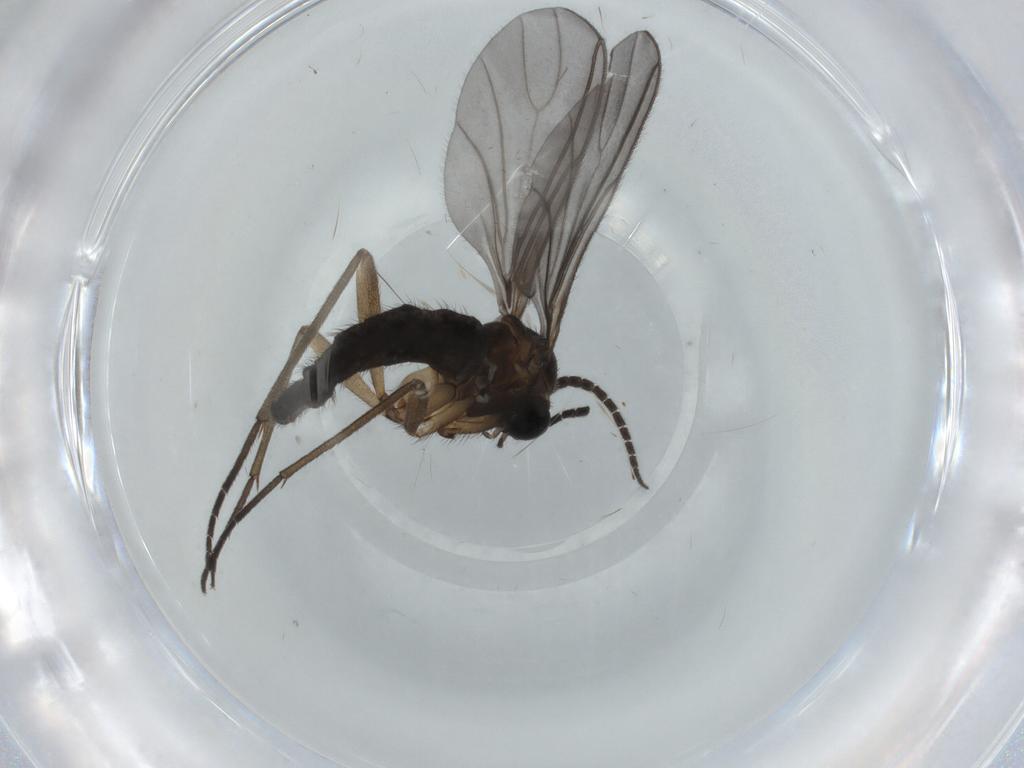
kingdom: Animalia
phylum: Arthropoda
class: Insecta
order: Diptera
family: Sciaridae
